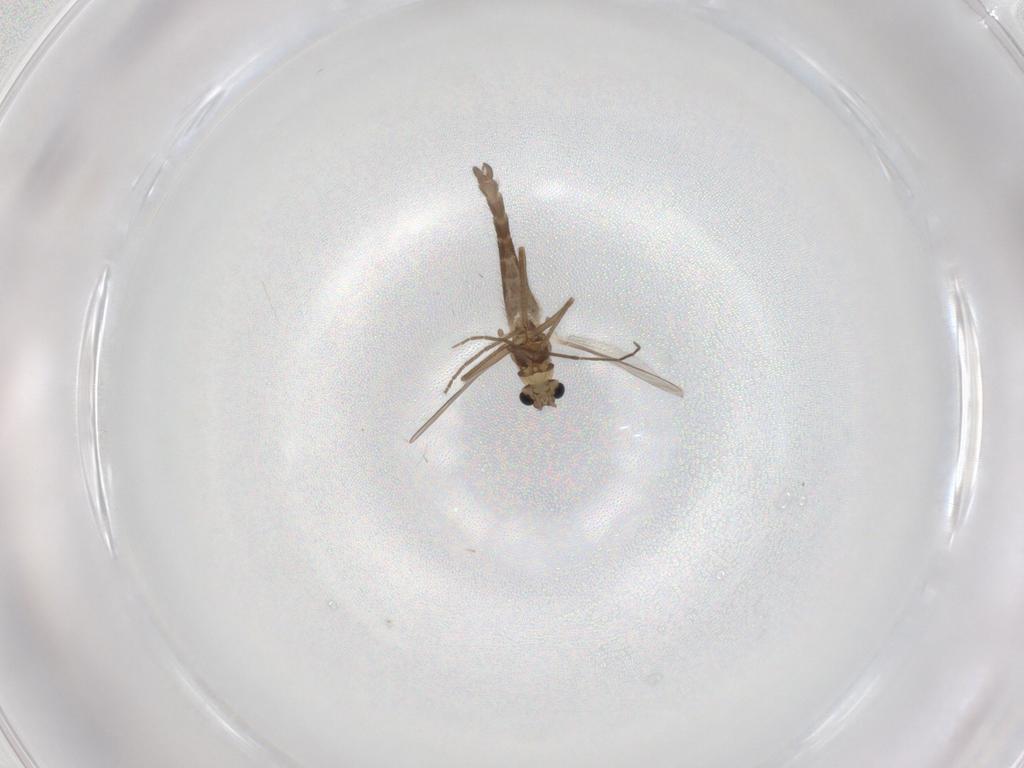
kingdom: Animalia
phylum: Arthropoda
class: Insecta
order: Diptera
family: Chironomidae
